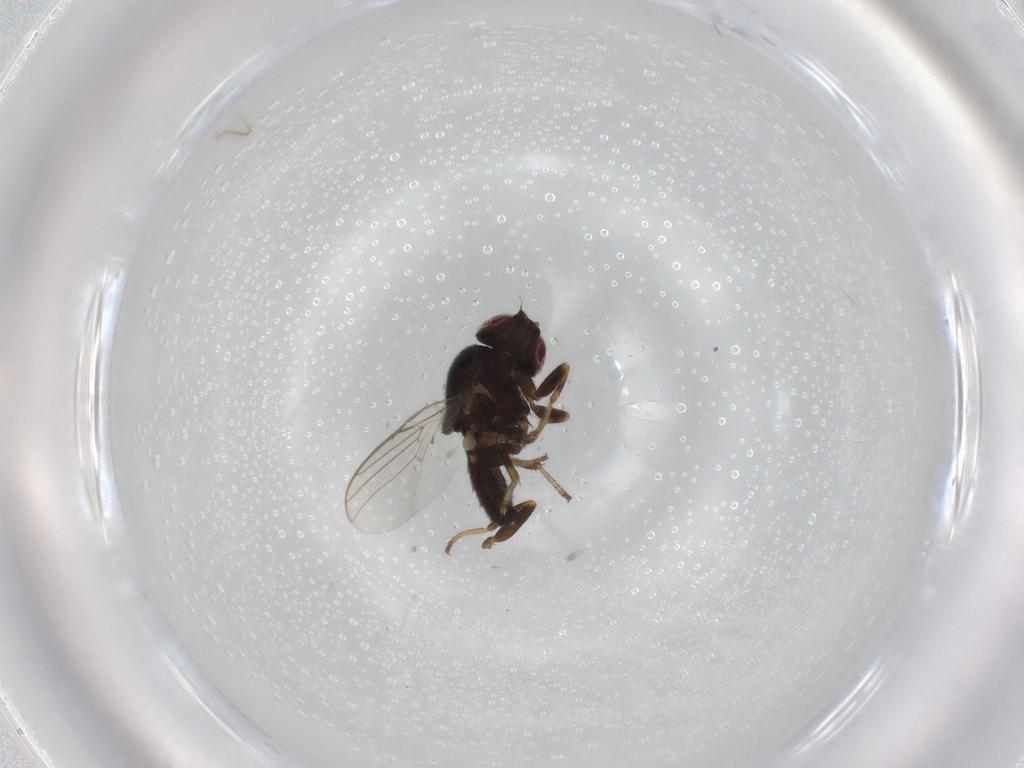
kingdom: Animalia
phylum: Arthropoda
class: Insecta
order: Diptera
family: Chloropidae
